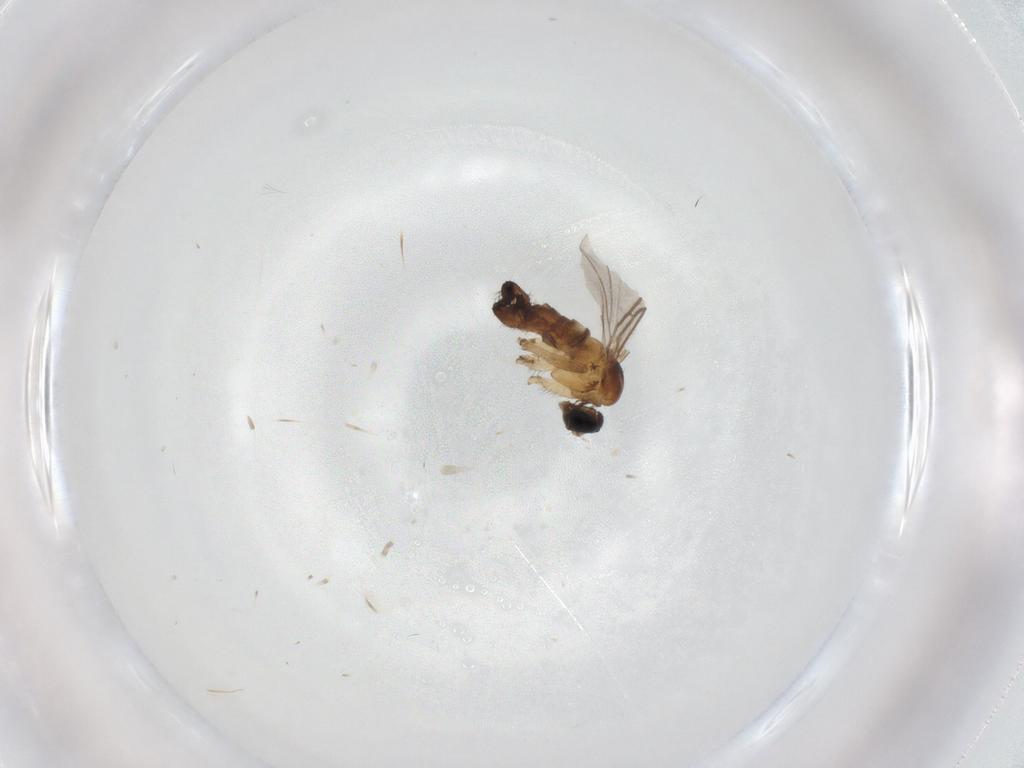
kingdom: Animalia
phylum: Arthropoda
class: Insecta
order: Diptera
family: Sciaridae
